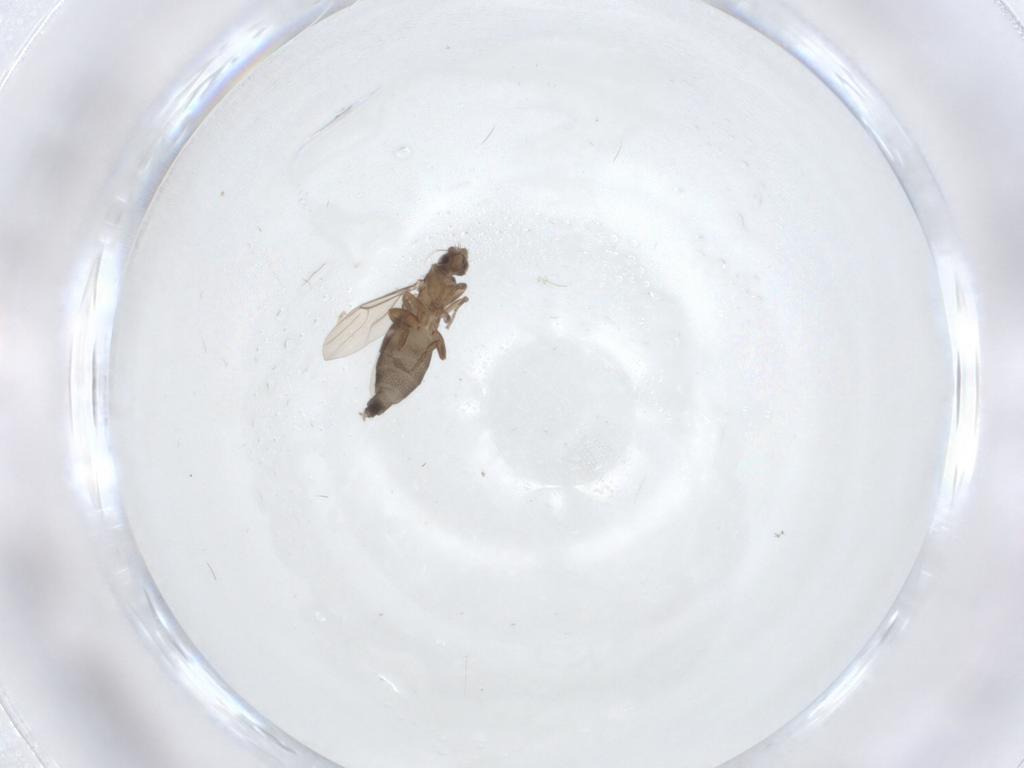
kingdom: Animalia
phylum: Arthropoda
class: Insecta
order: Diptera
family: Phoridae
